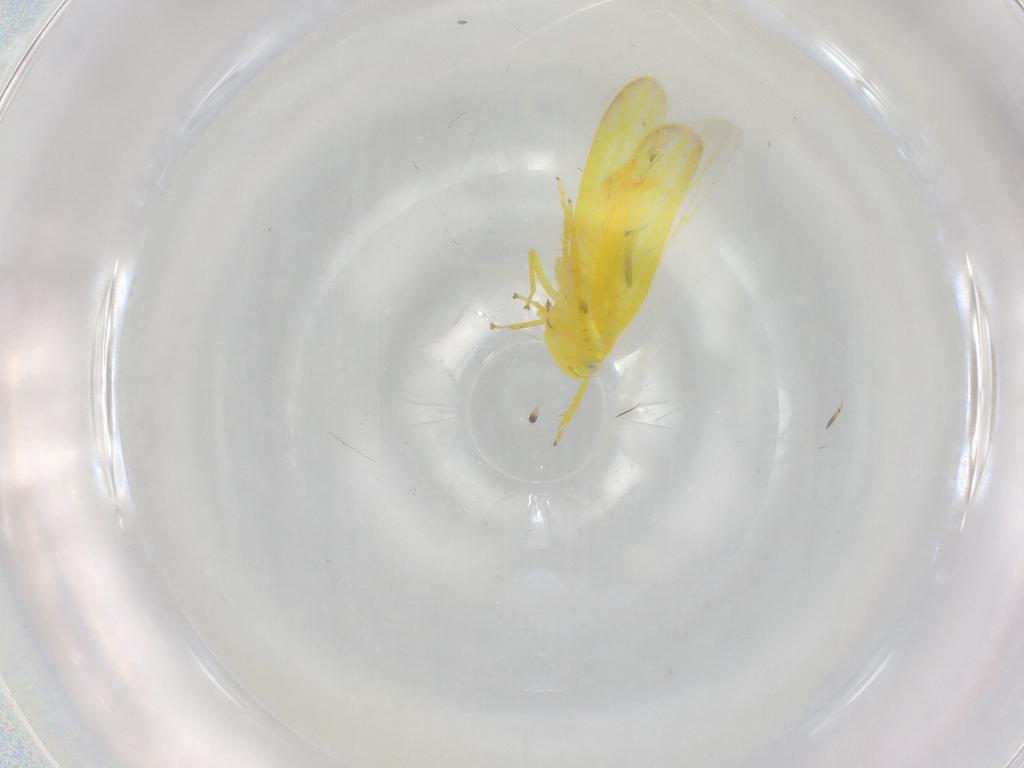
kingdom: Animalia
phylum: Arthropoda
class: Insecta
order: Hemiptera
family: Cicadellidae
